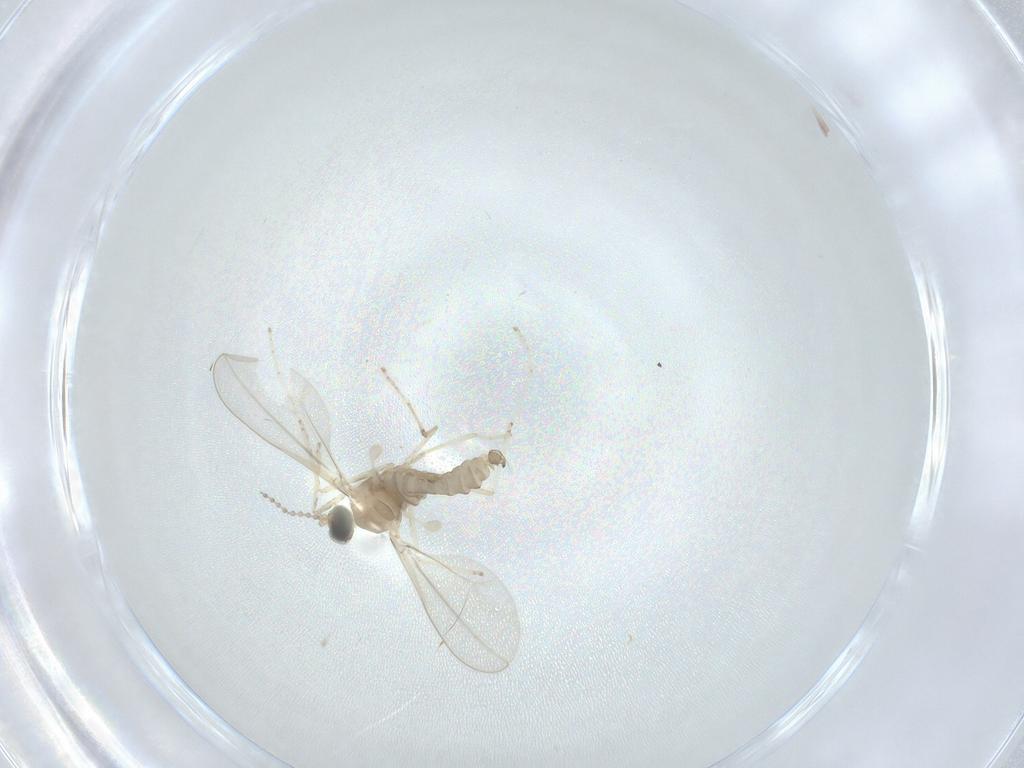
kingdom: Animalia
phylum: Arthropoda
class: Insecta
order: Diptera
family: Cecidomyiidae
